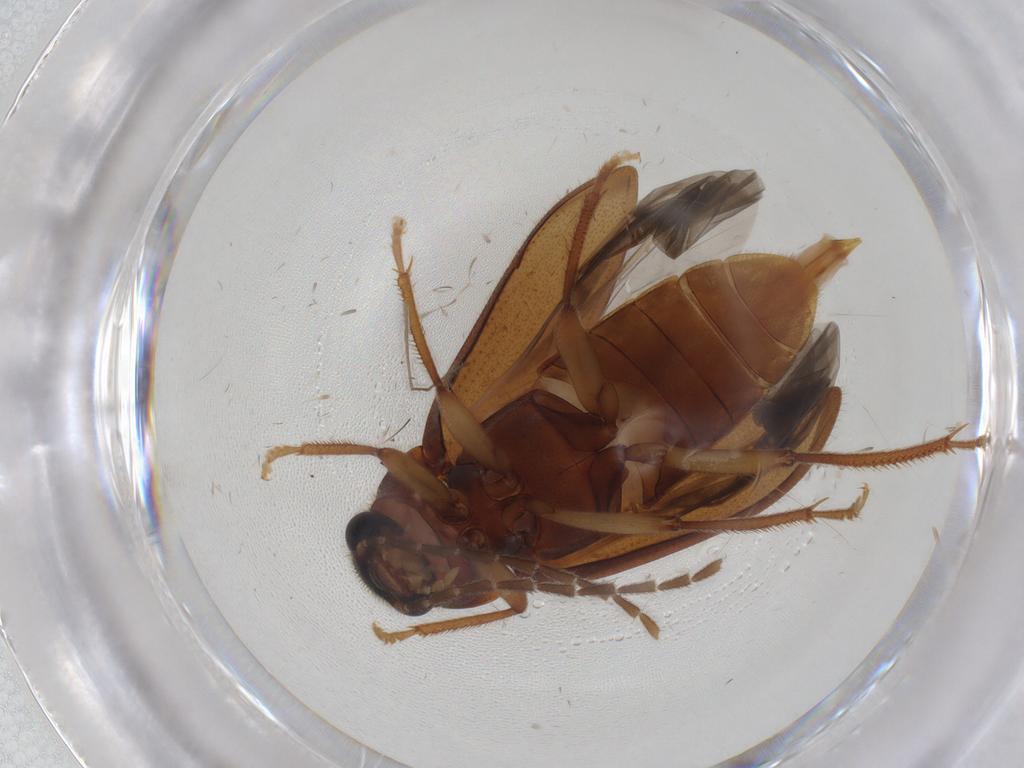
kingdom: Animalia
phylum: Arthropoda
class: Insecta
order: Coleoptera
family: Ptilodactylidae
